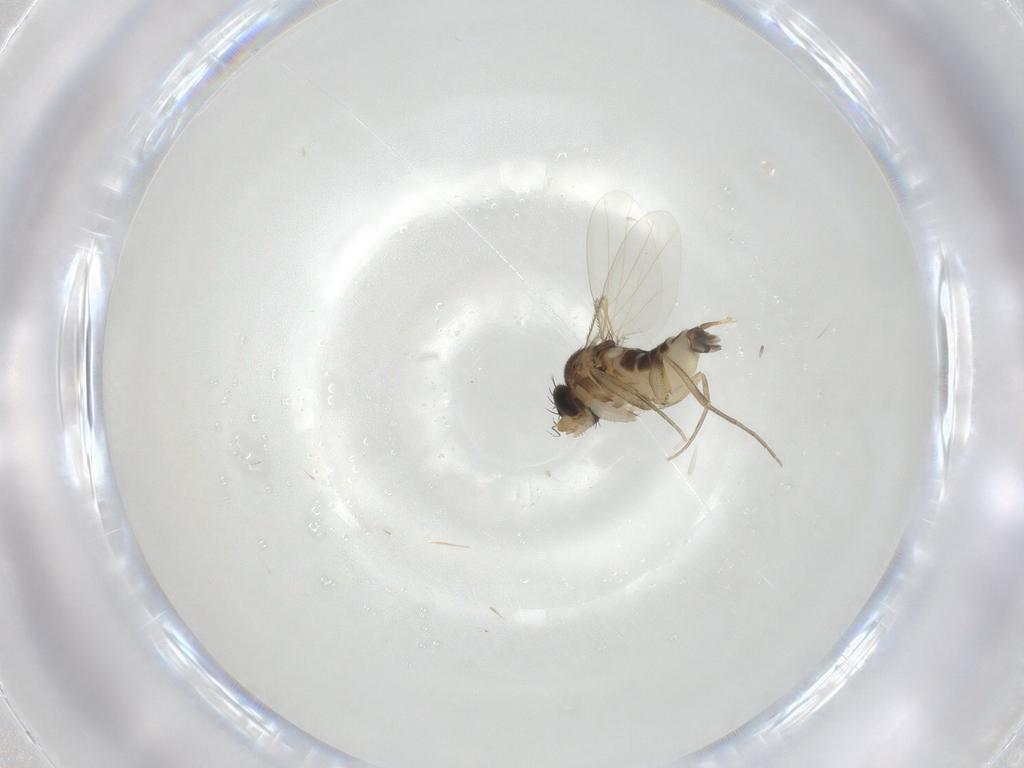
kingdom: Animalia
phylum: Arthropoda
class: Insecta
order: Diptera
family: Phoridae
